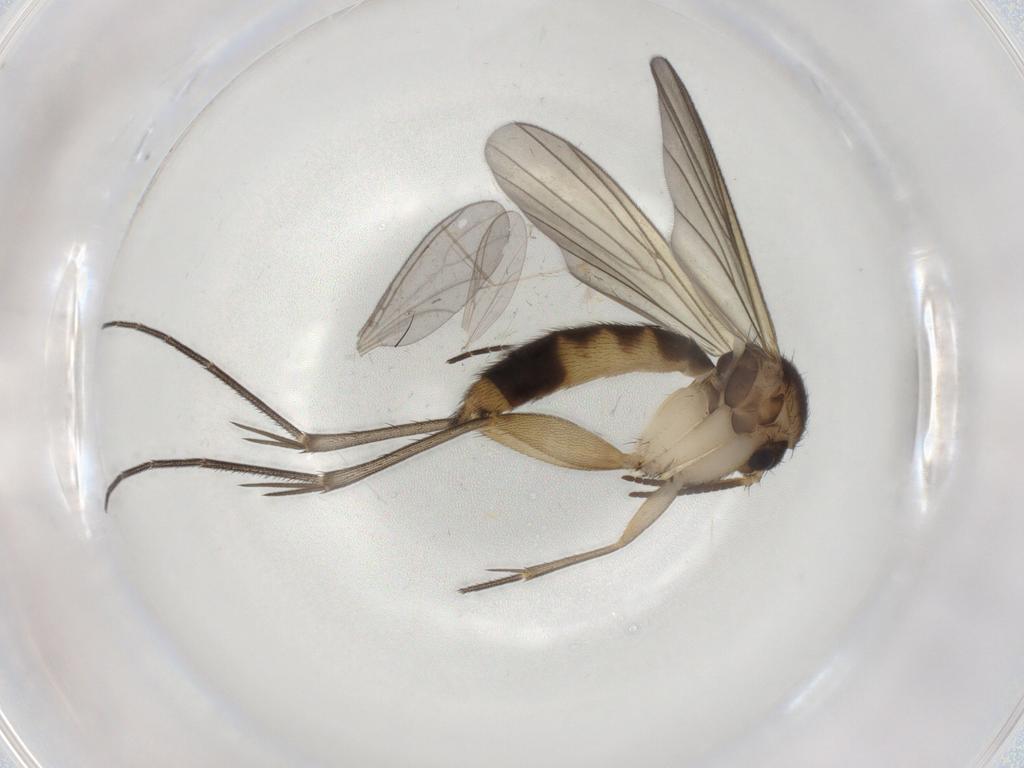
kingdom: Animalia
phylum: Arthropoda
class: Insecta
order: Diptera
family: Mycetophilidae
